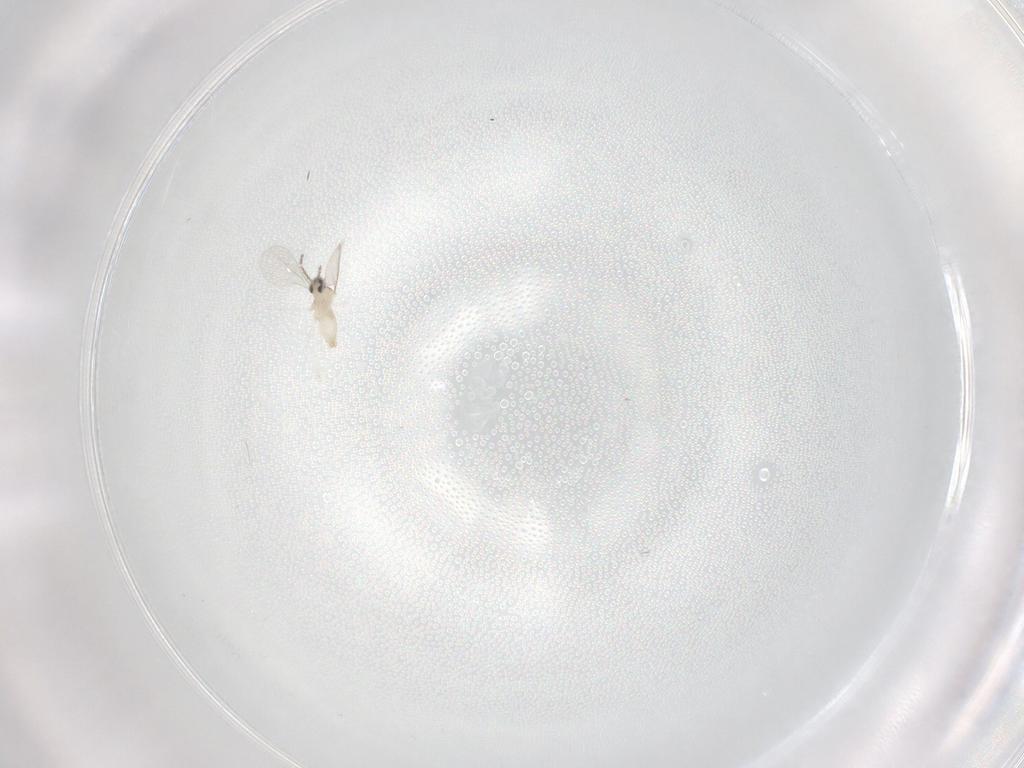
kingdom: Animalia
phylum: Arthropoda
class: Insecta
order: Diptera
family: Cecidomyiidae
